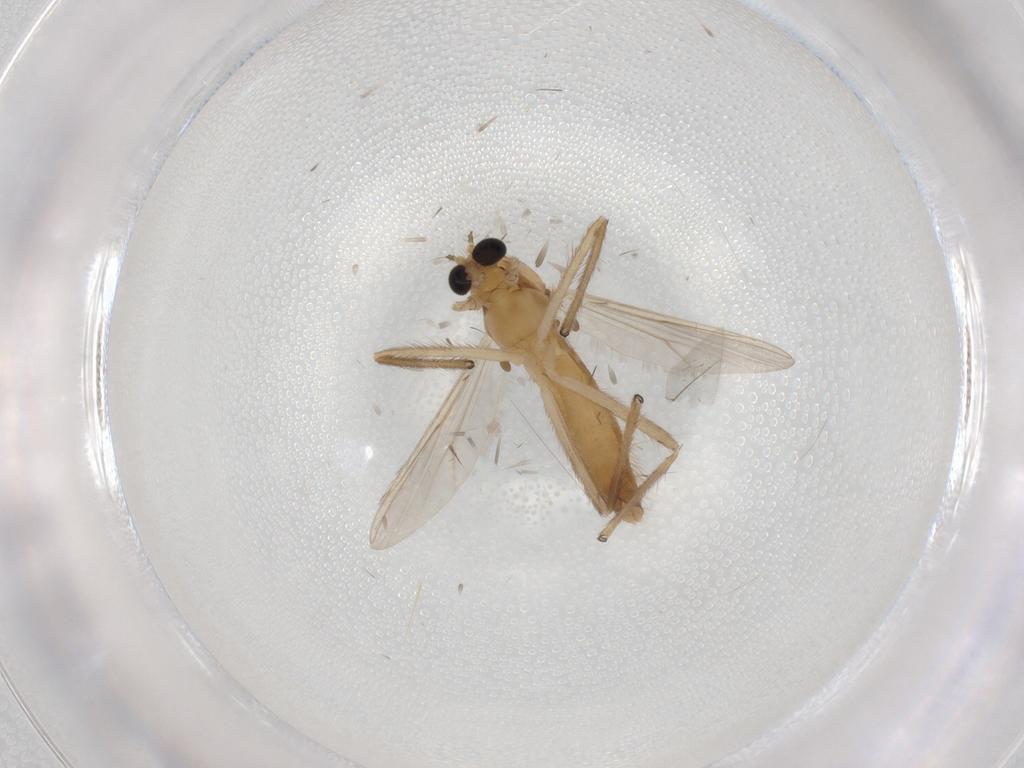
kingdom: Animalia
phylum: Arthropoda
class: Insecta
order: Diptera
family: Chironomidae
